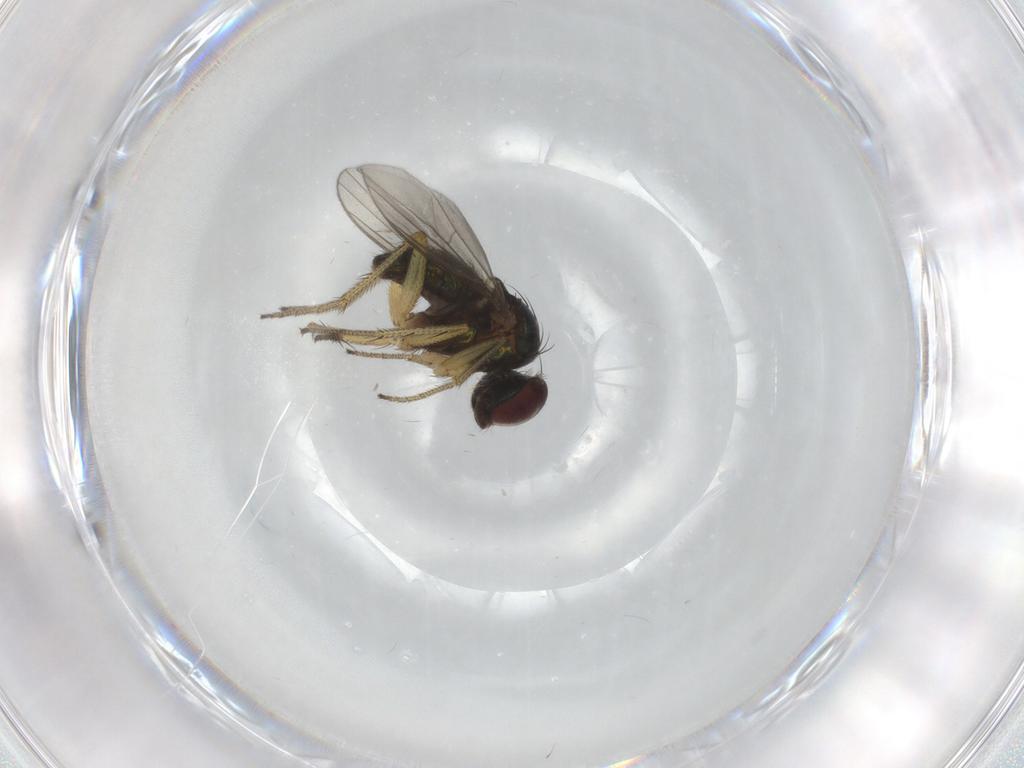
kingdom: Animalia
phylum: Arthropoda
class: Insecta
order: Diptera
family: Dolichopodidae
